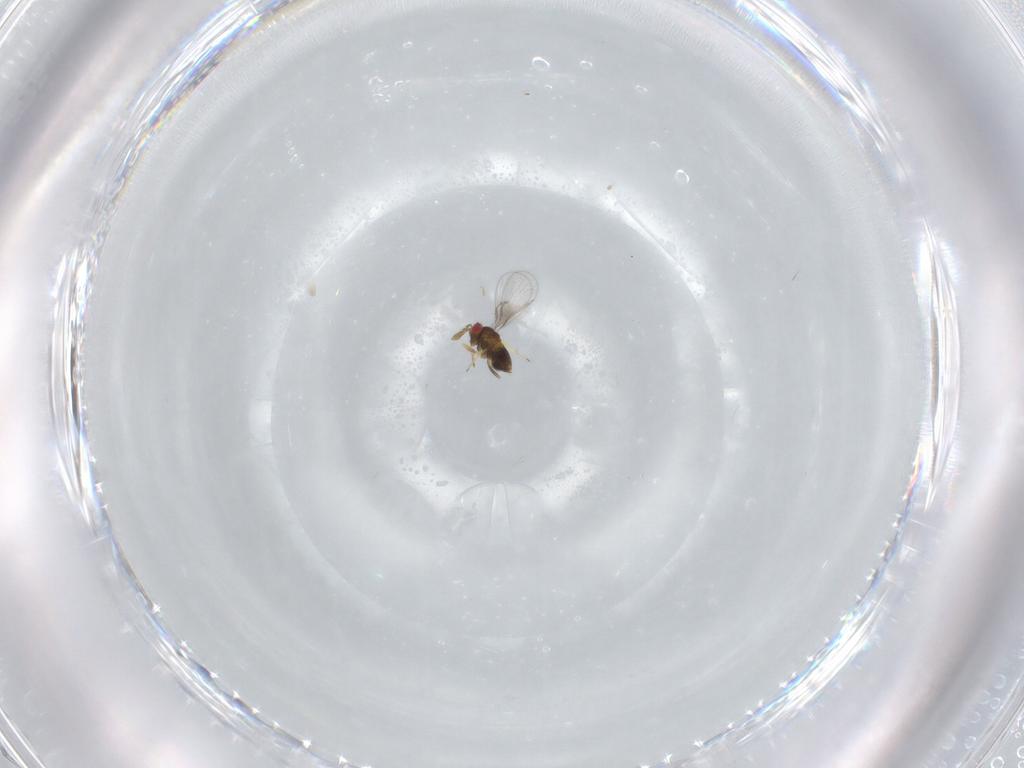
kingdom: Animalia
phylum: Arthropoda
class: Insecta
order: Hymenoptera
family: Trichogrammatidae
